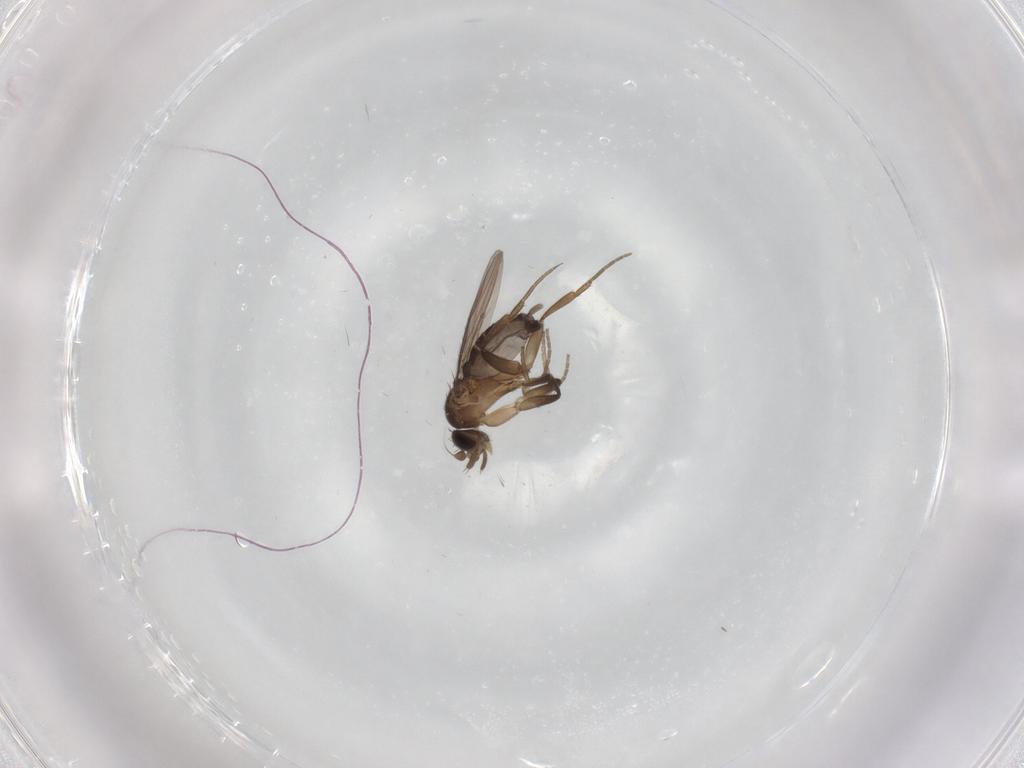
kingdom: Animalia
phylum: Arthropoda
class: Insecta
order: Diptera
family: Phoridae
